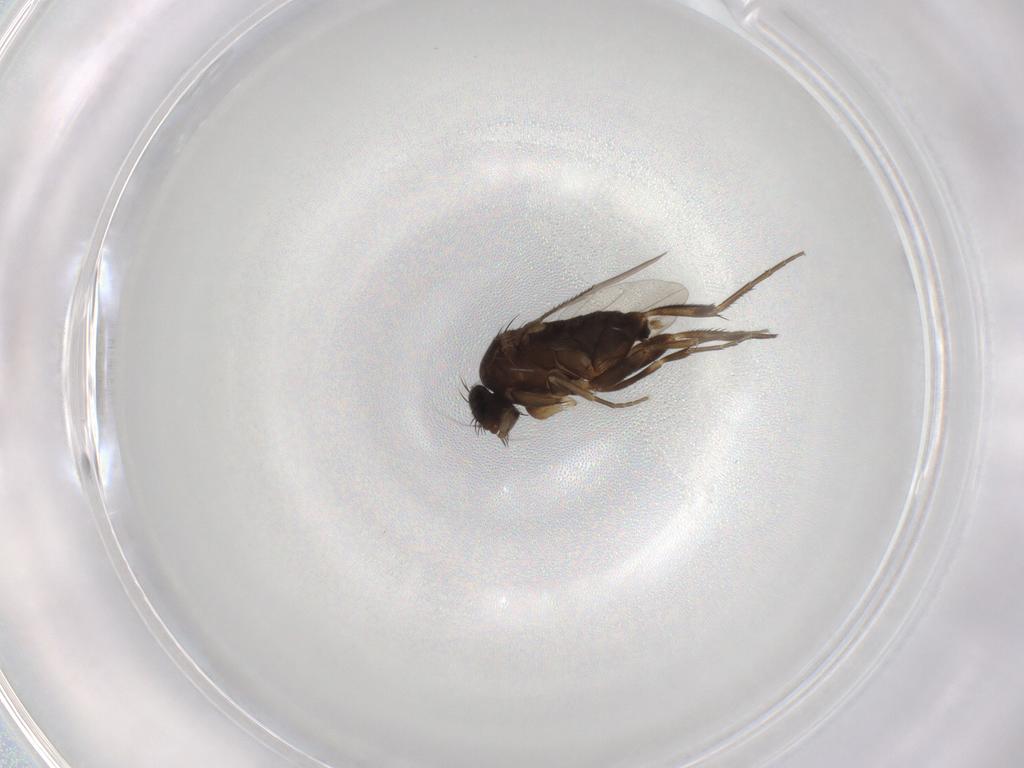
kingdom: Animalia
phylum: Arthropoda
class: Insecta
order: Diptera
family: Phoridae
